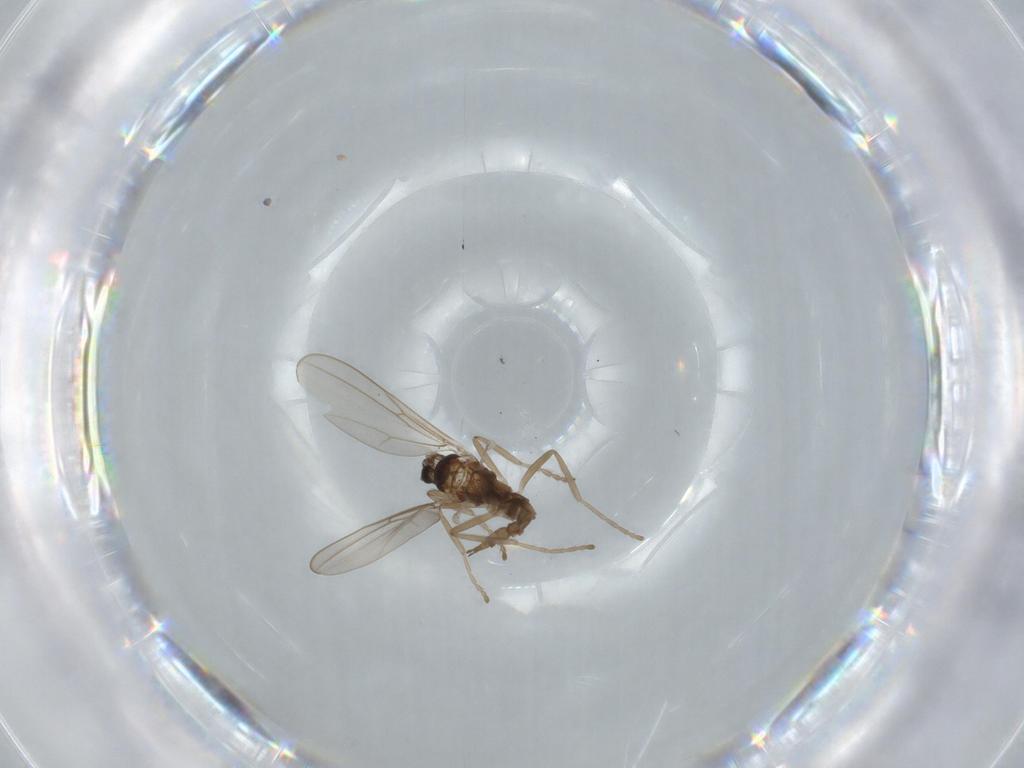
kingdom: Animalia
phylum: Arthropoda
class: Insecta
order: Diptera
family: Cecidomyiidae
